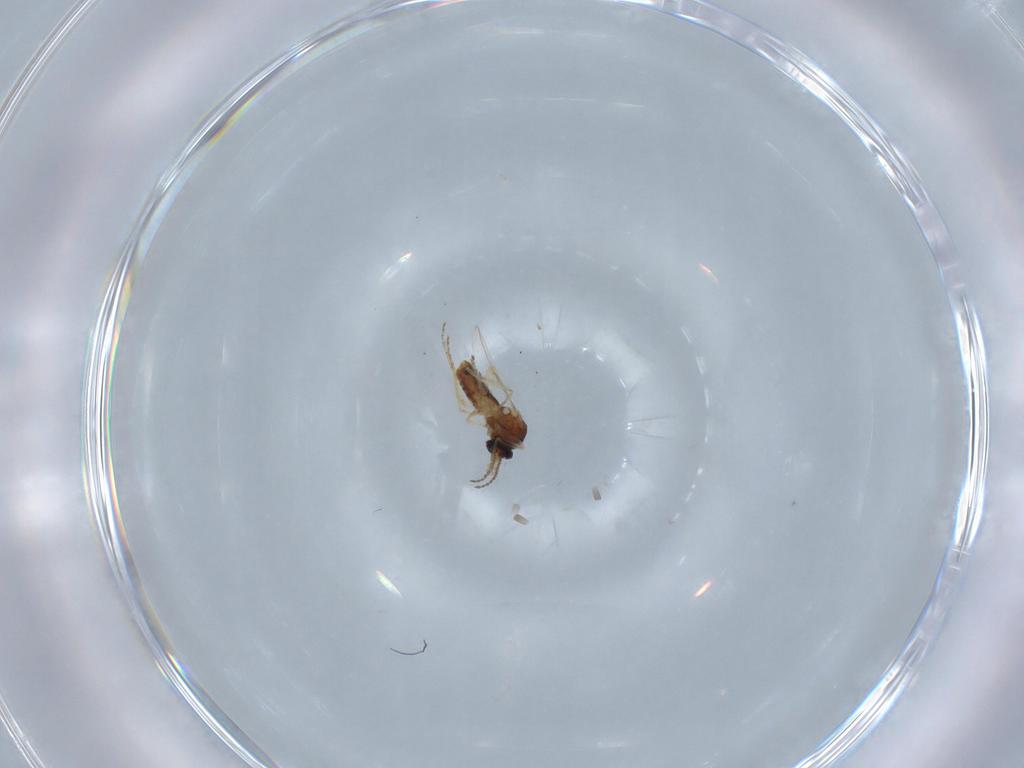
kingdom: Animalia
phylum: Arthropoda
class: Insecta
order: Diptera
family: Ceratopogonidae
